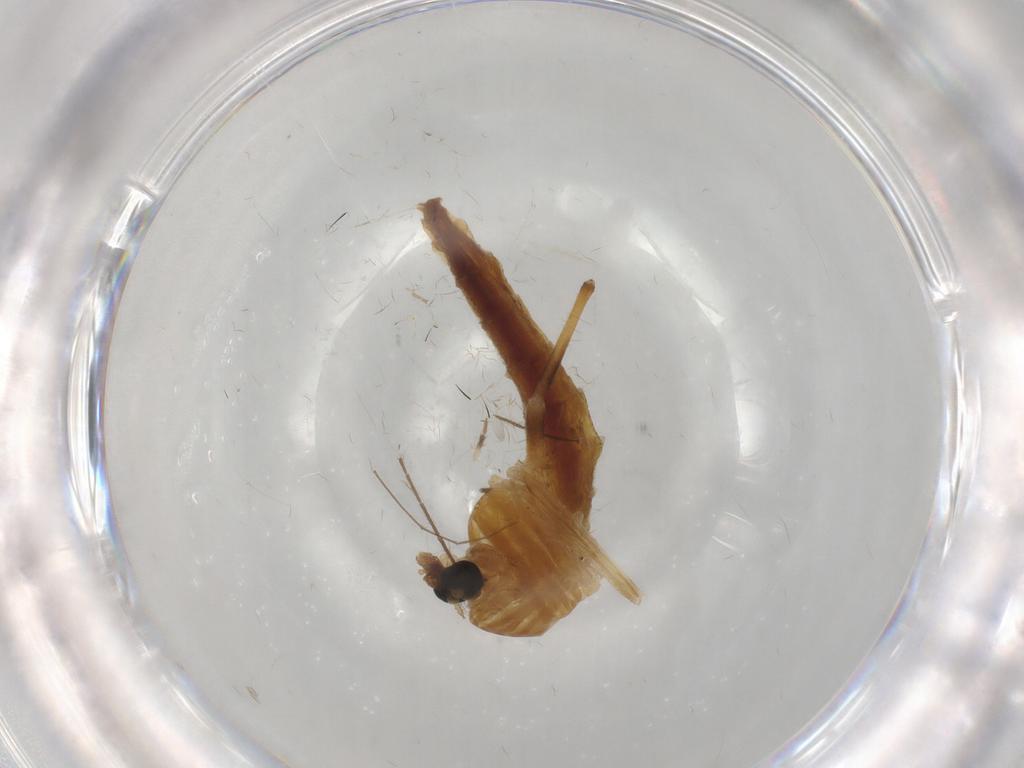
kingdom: Animalia
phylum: Arthropoda
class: Insecta
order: Diptera
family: Chironomidae
